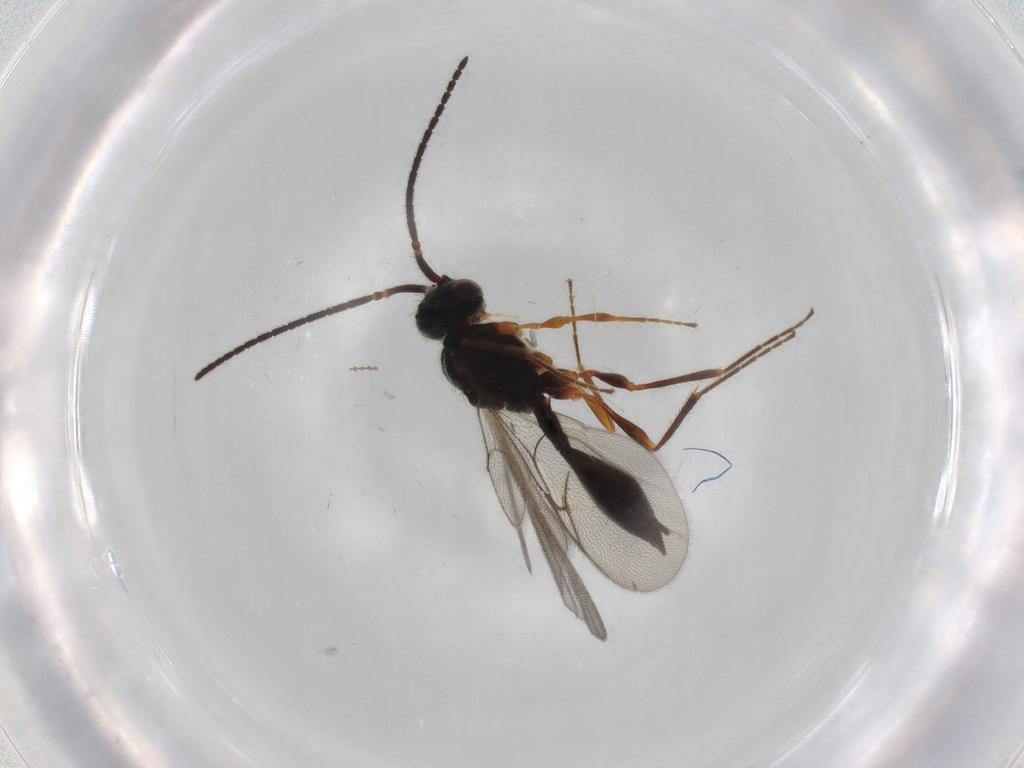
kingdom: Animalia
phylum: Arthropoda
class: Insecta
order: Hymenoptera
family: Diapriidae
